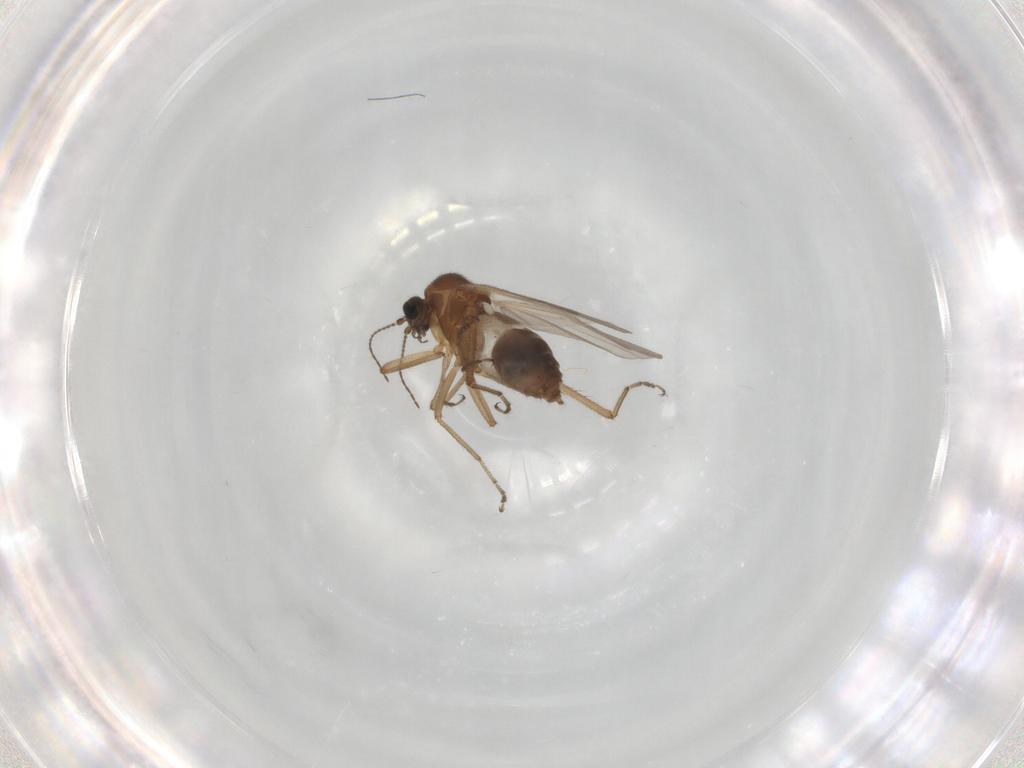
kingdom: Animalia
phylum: Arthropoda
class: Insecta
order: Diptera
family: Ceratopogonidae
